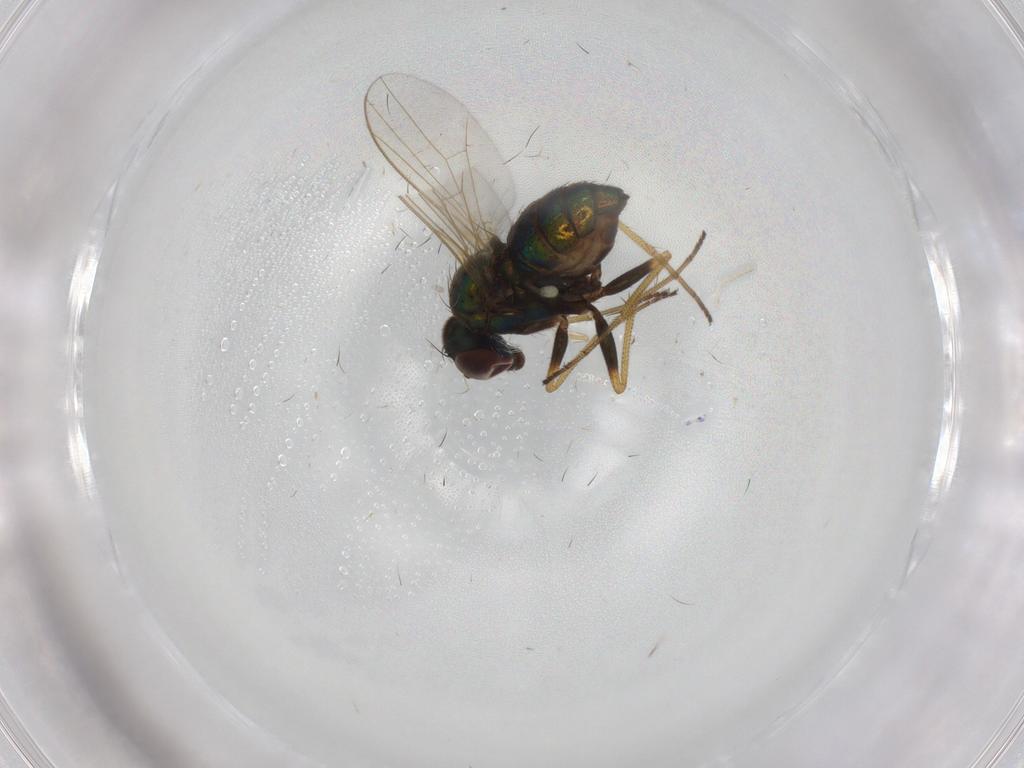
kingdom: Animalia
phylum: Arthropoda
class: Insecta
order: Diptera
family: Dolichopodidae
